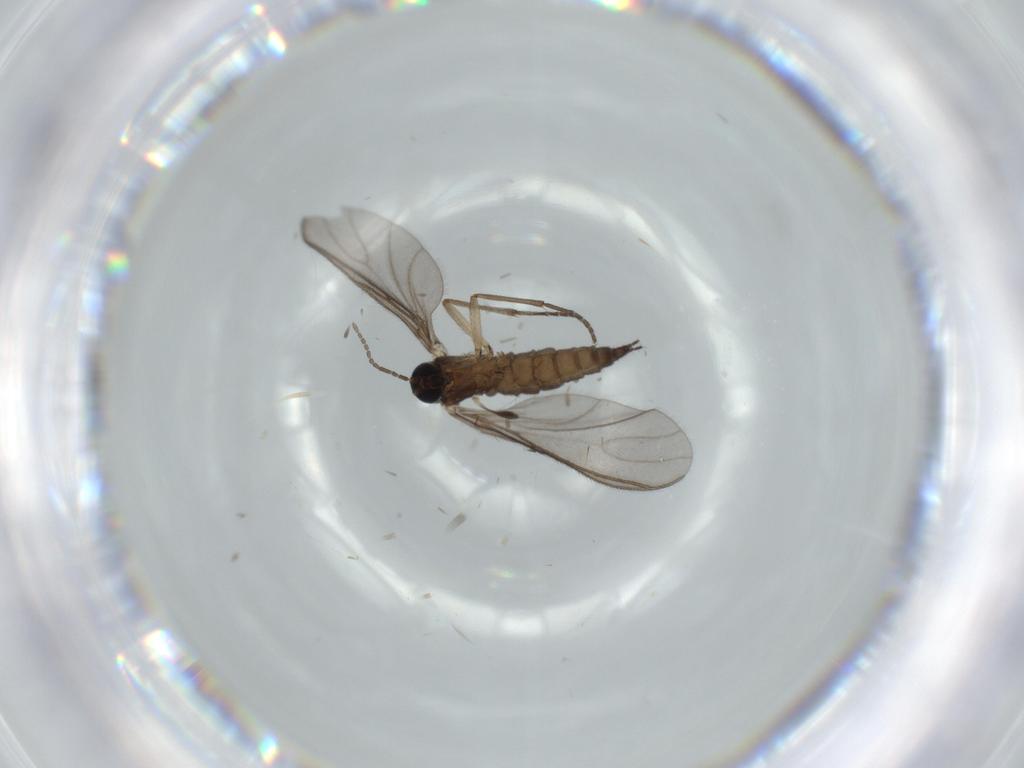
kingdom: Animalia
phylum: Arthropoda
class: Insecta
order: Diptera
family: Sciaridae
